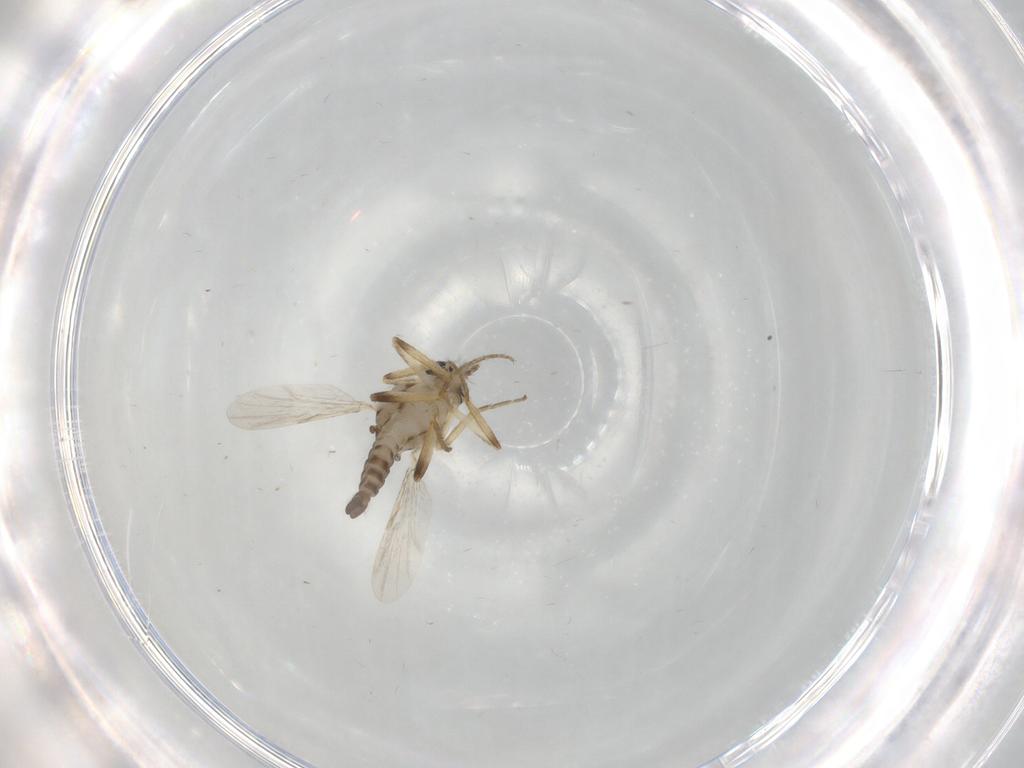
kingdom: Animalia
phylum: Arthropoda
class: Insecta
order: Diptera
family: Ceratopogonidae
